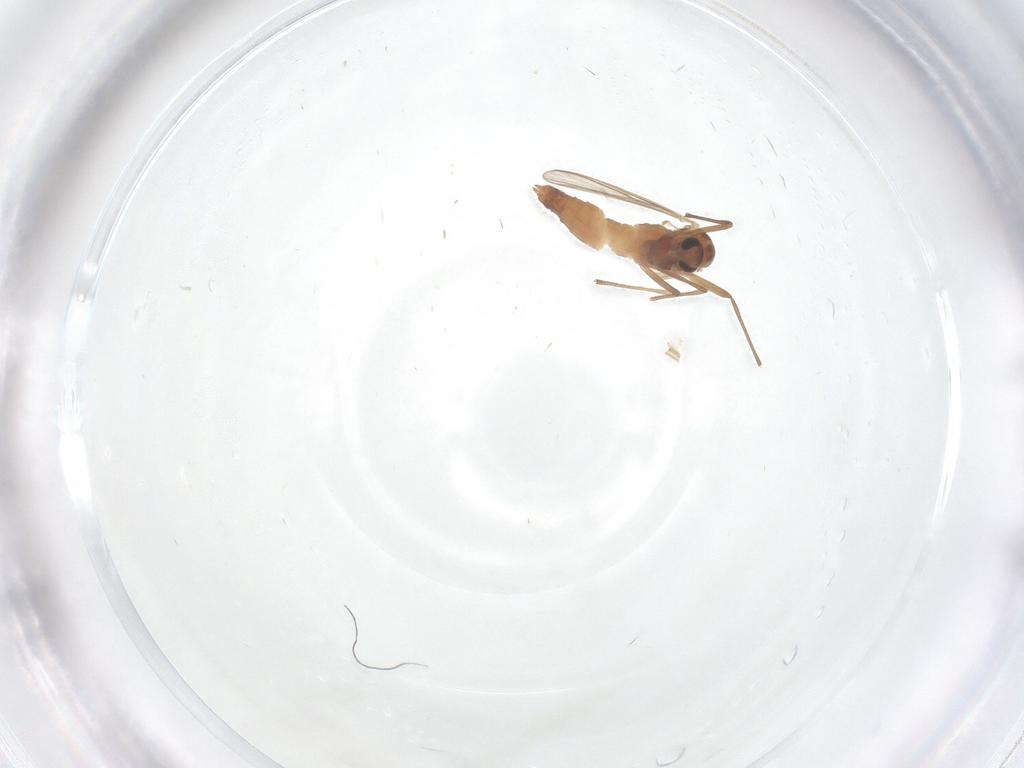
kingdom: Animalia
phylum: Arthropoda
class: Insecta
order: Diptera
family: Chironomidae
